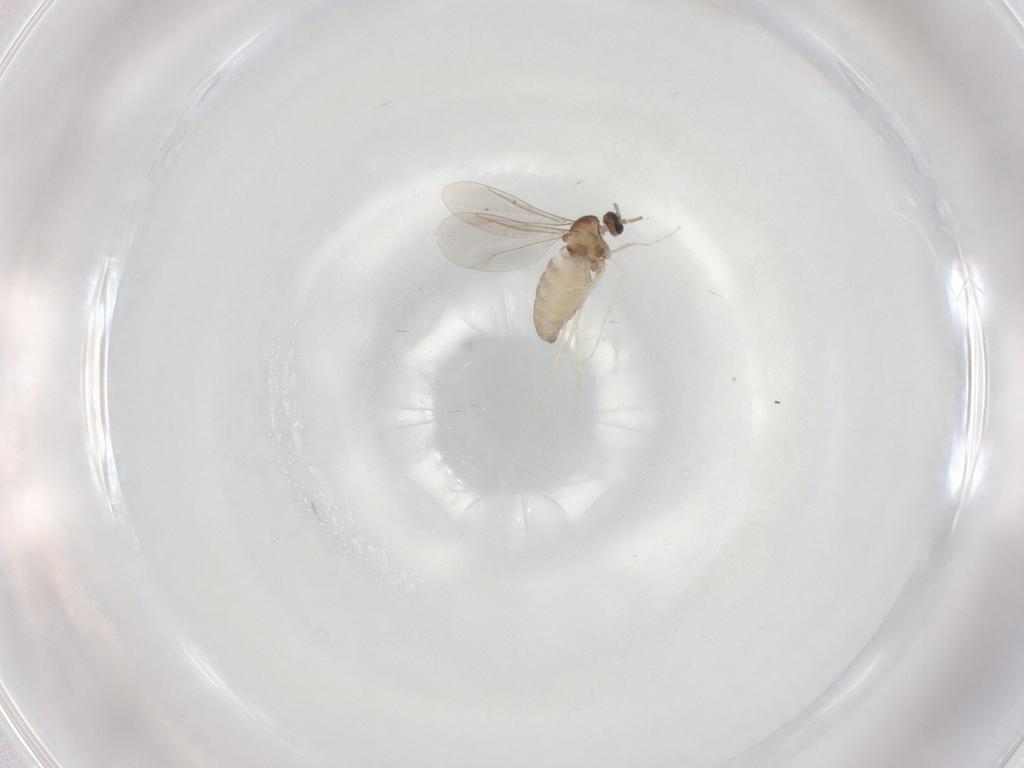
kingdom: Animalia
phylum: Arthropoda
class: Insecta
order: Diptera
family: Cecidomyiidae
